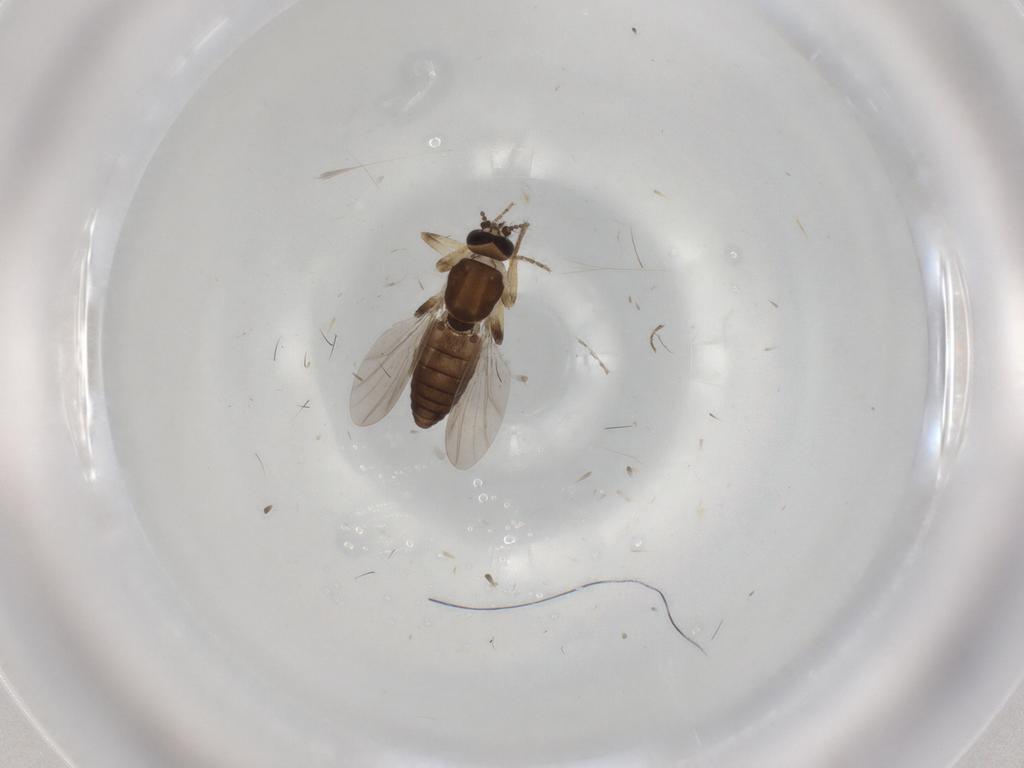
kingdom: Animalia
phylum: Arthropoda
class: Insecta
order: Diptera
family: Ceratopogonidae
